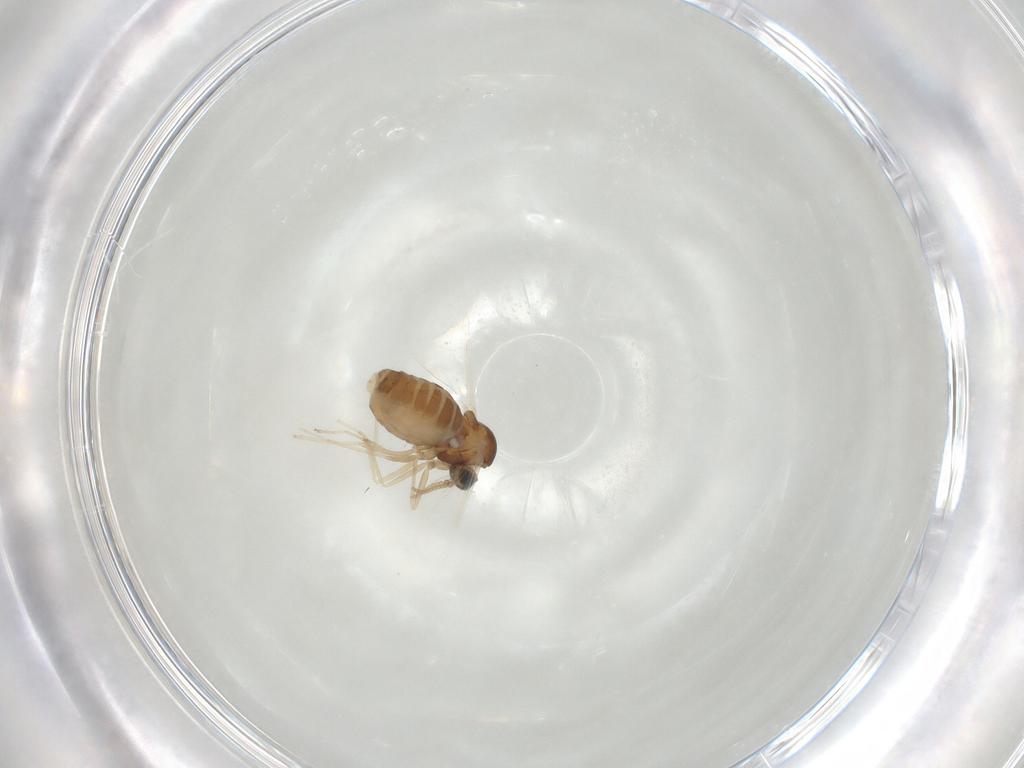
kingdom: Animalia
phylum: Arthropoda
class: Insecta
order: Diptera
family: Cecidomyiidae
